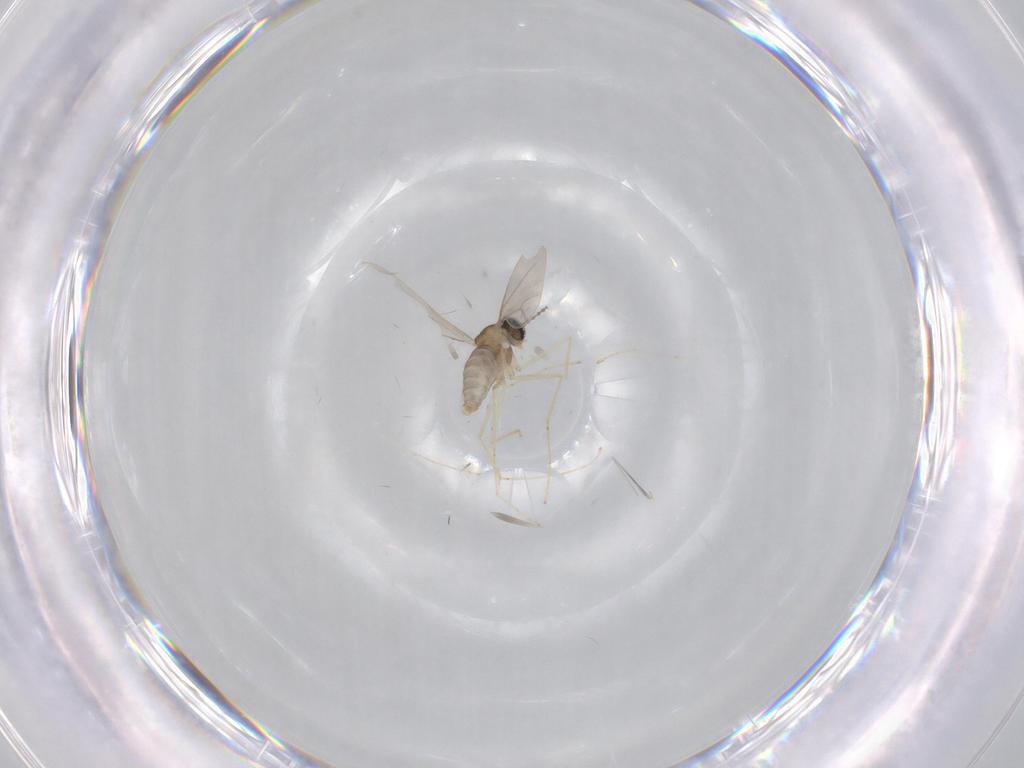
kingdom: Animalia
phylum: Arthropoda
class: Insecta
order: Diptera
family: Cecidomyiidae
